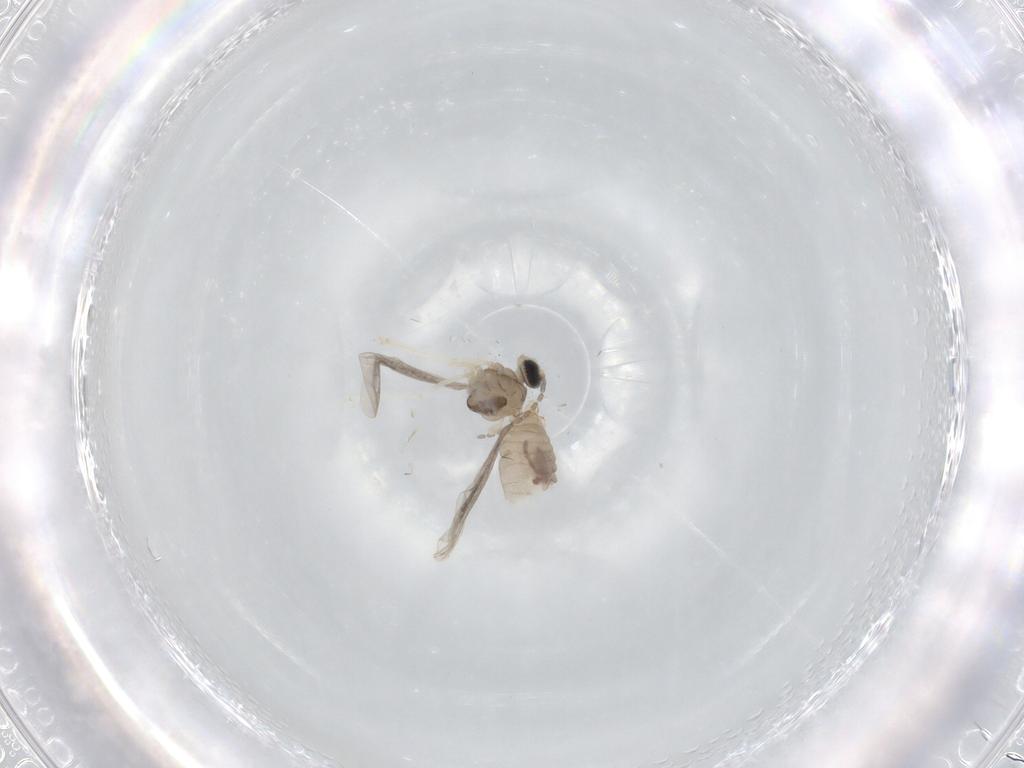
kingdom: Animalia
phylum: Arthropoda
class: Insecta
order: Diptera
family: Cecidomyiidae
